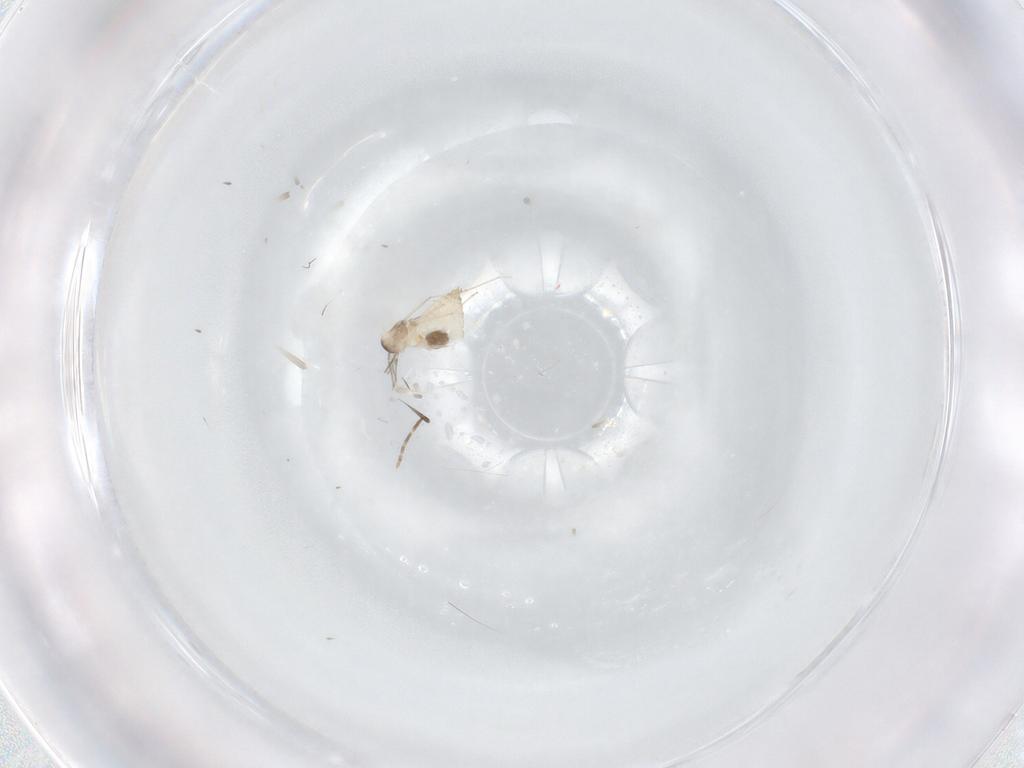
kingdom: Animalia
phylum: Arthropoda
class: Insecta
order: Diptera
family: Cecidomyiidae
